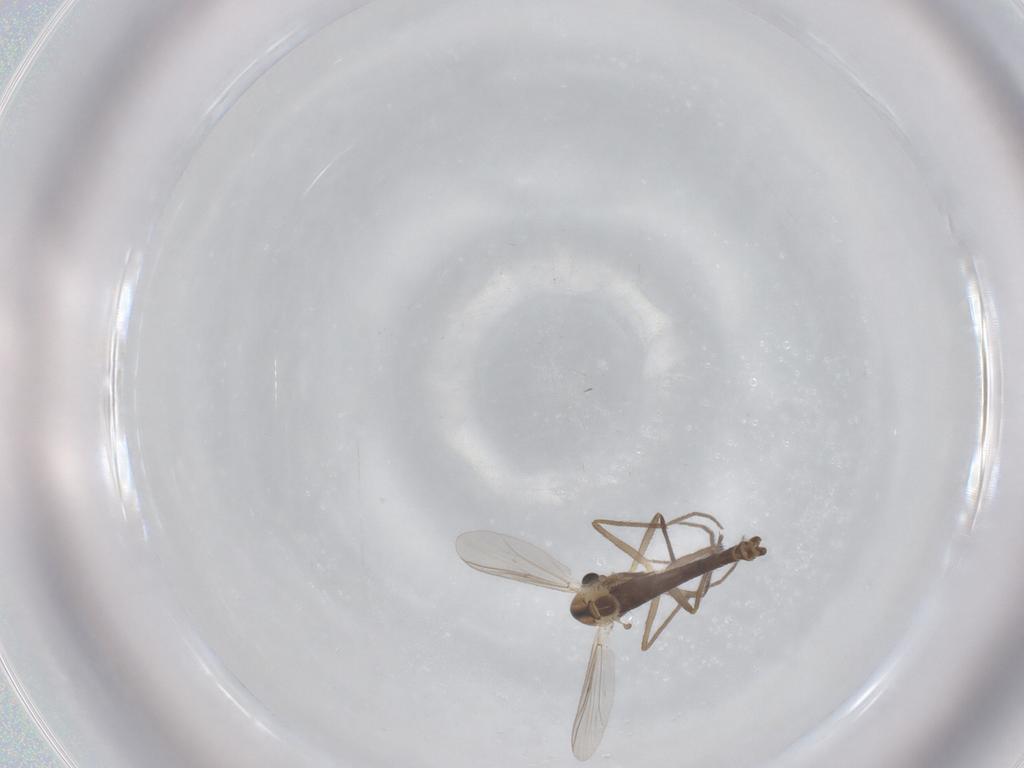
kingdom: Animalia
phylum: Arthropoda
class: Insecta
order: Diptera
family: Chironomidae
